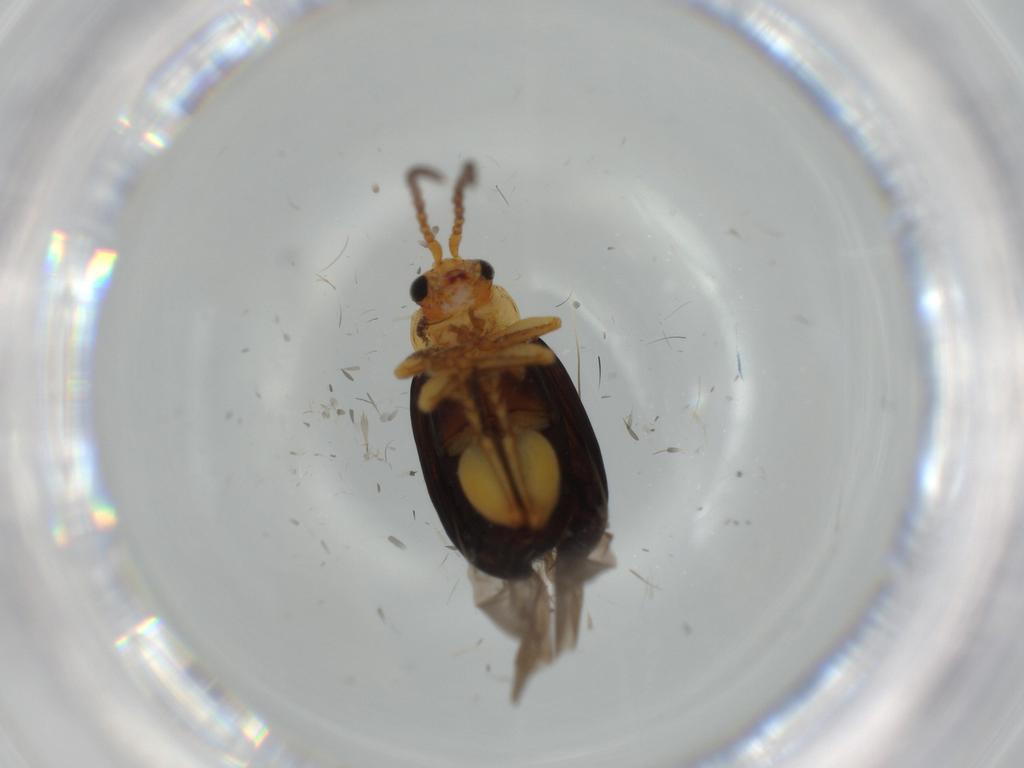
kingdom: Animalia
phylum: Arthropoda
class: Insecta
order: Coleoptera
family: Chrysomelidae
